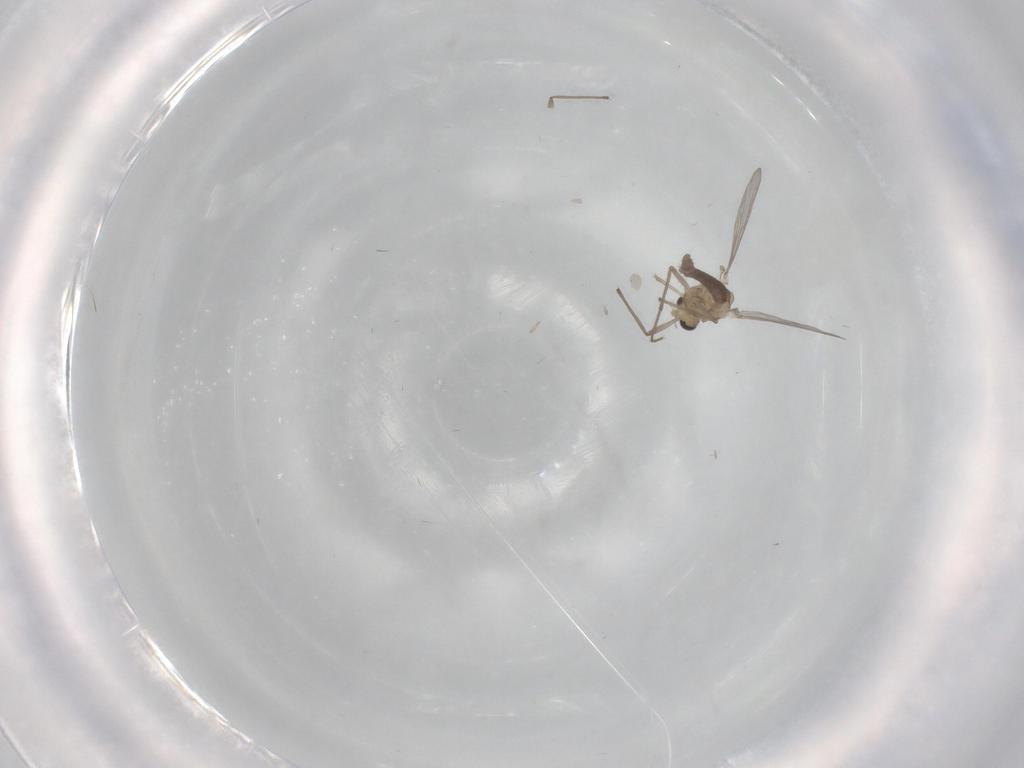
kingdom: Animalia
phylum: Arthropoda
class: Insecta
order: Diptera
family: Chironomidae
